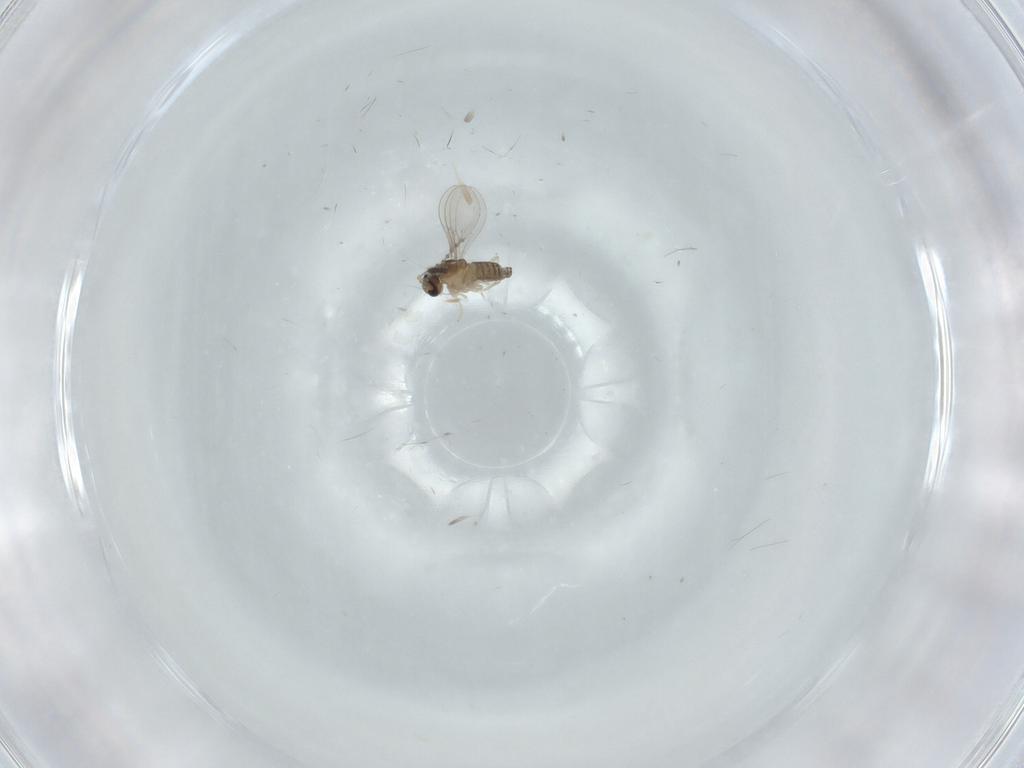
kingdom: Animalia
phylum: Arthropoda
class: Insecta
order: Diptera
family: Cecidomyiidae
